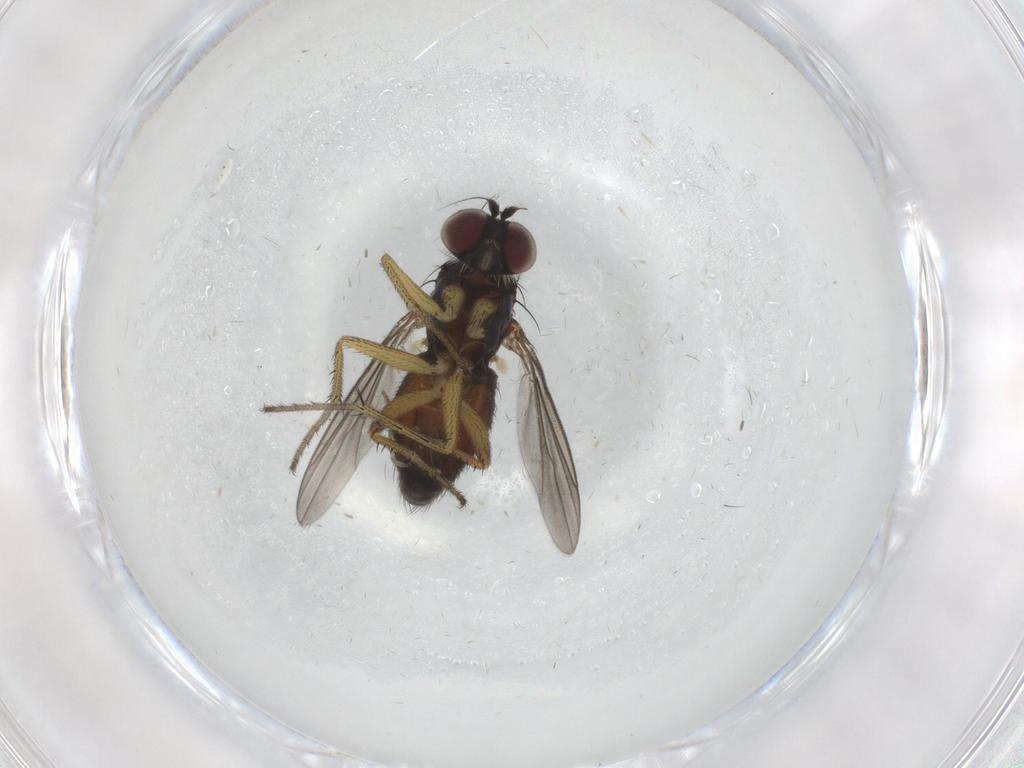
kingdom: Animalia
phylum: Arthropoda
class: Insecta
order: Diptera
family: Dolichopodidae
